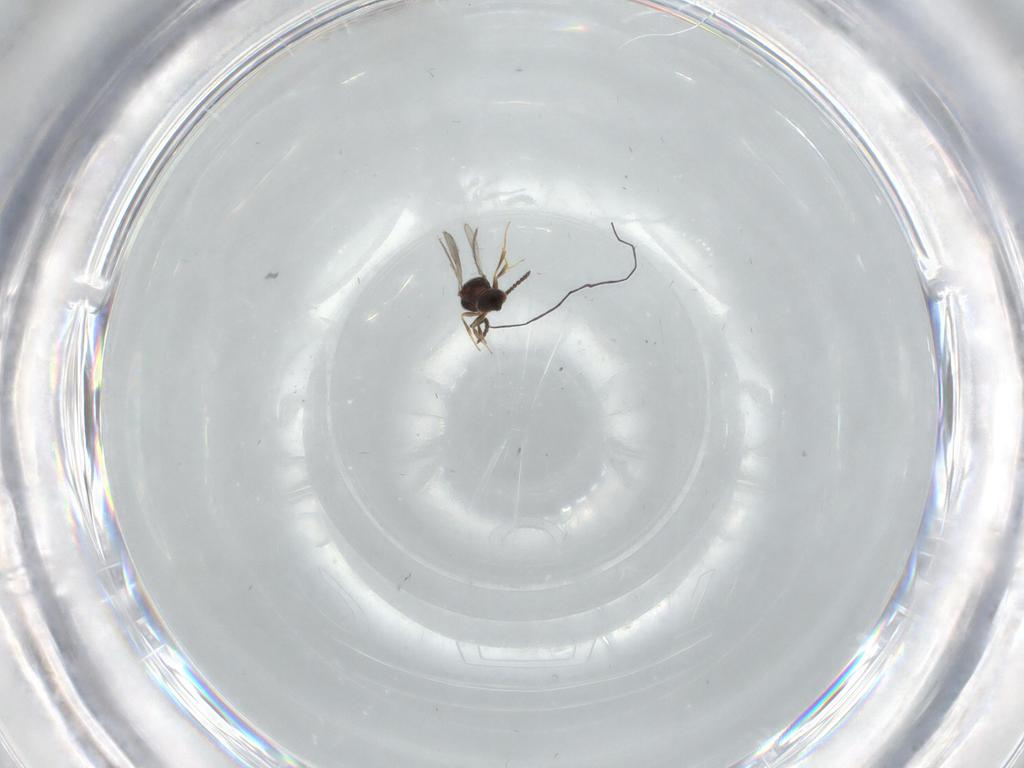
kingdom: Animalia
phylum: Arthropoda
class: Insecta
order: Hymenoptera
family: Scelionidae
